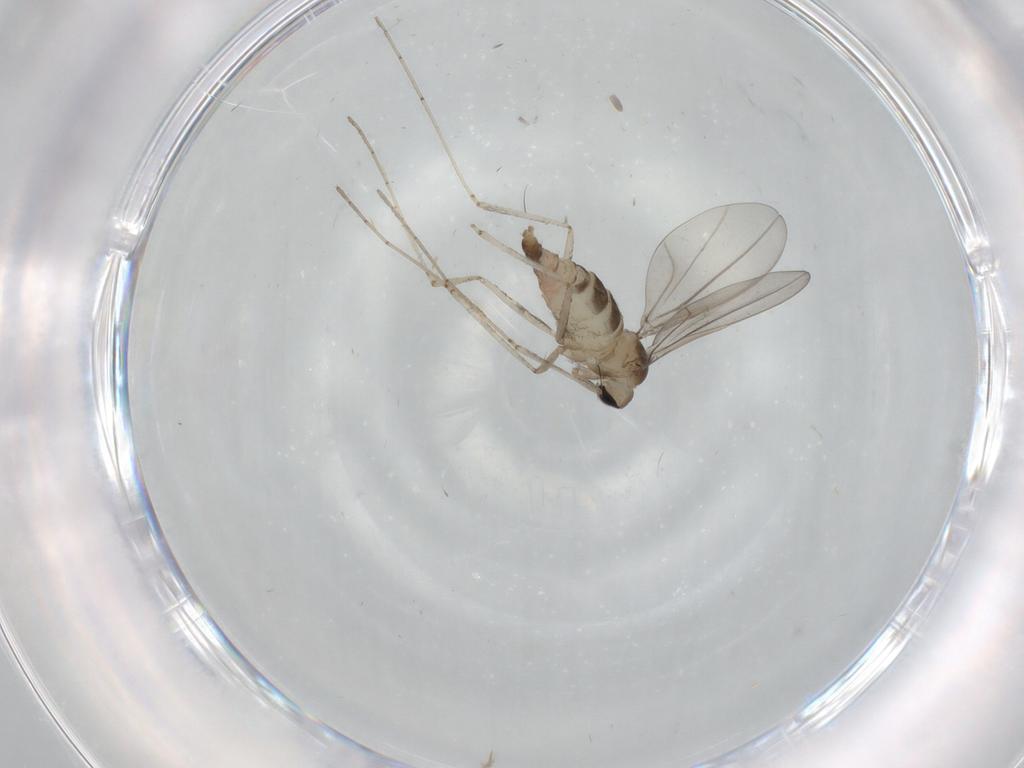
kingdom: Animalia
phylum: Arthropoda
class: Insecta
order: Diptera
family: Cecidomyiidae
